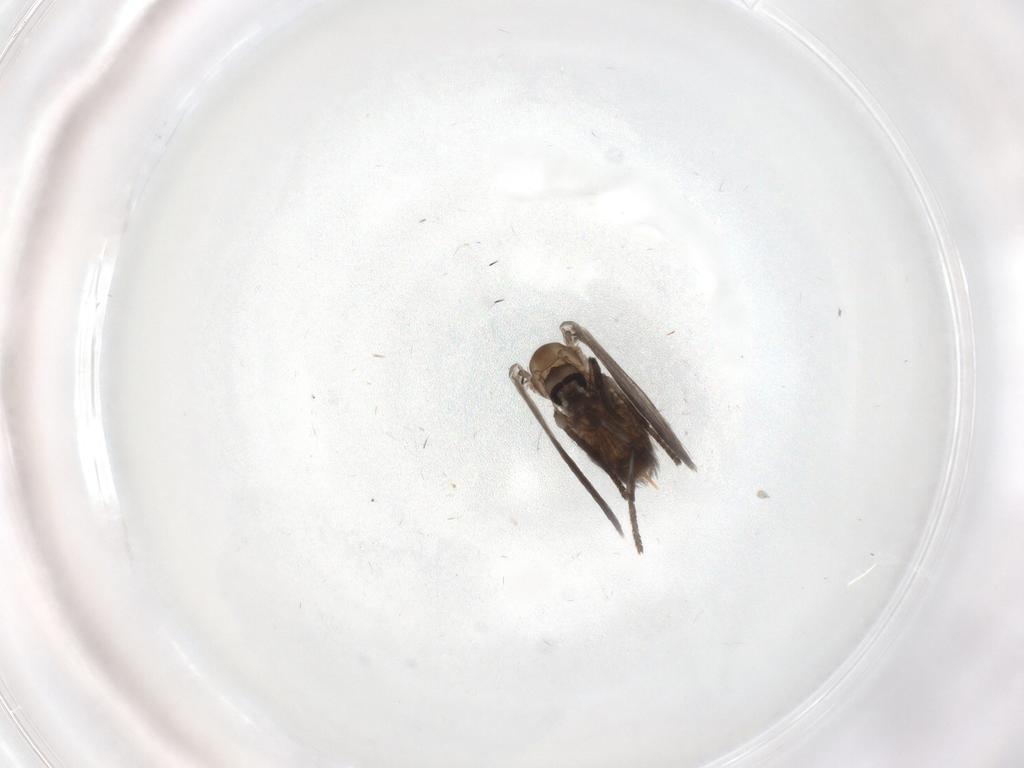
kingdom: Animalia
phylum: Arthropoda
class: Insecta
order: Diptera
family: Psychodidae
